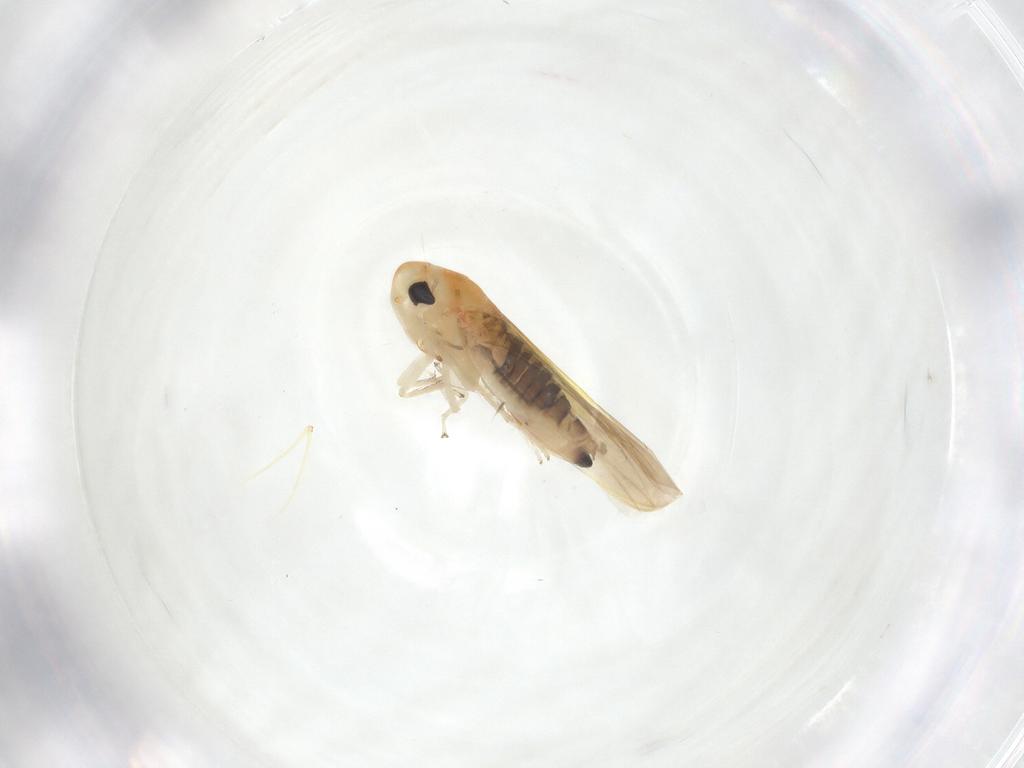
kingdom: Animalia
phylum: Arthropoda
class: Insecta
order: Hemiptera
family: Cicadellidae
